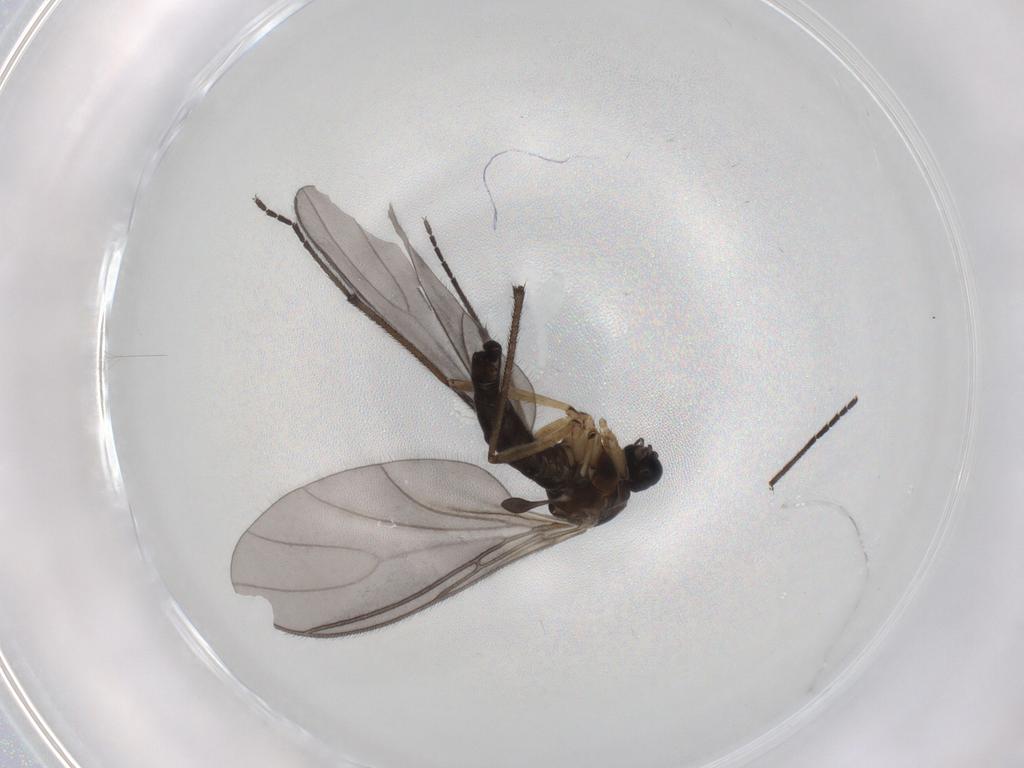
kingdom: Animalia
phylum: Arthropoda
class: Insecta
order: Diptera
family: Sciaridae
